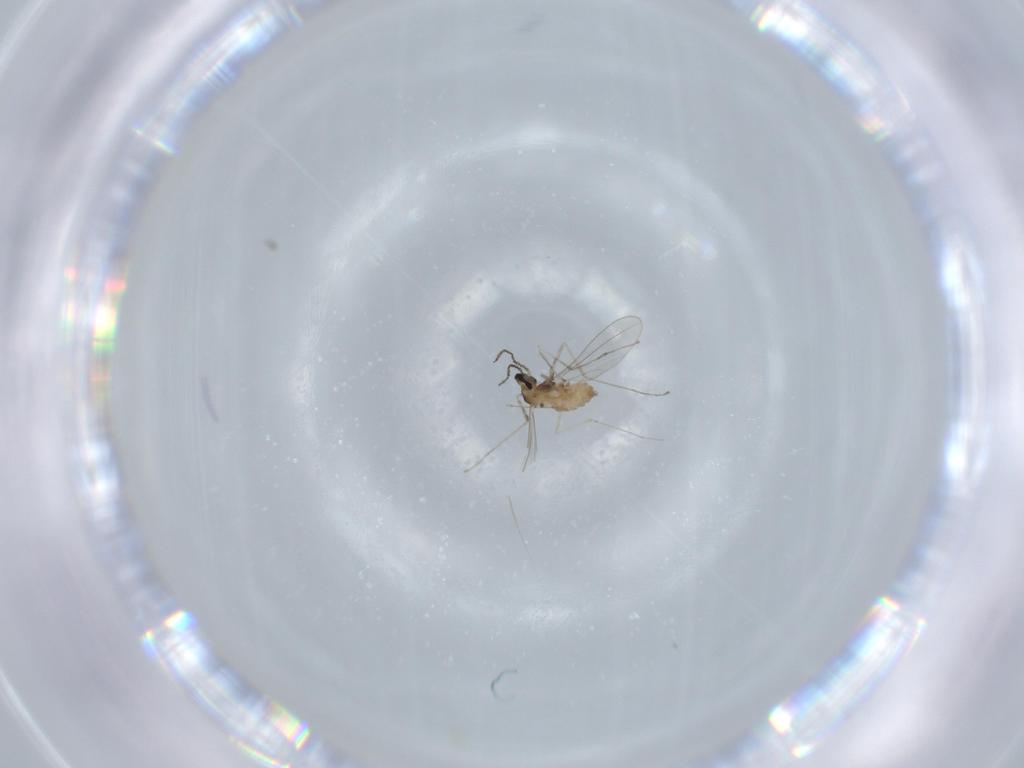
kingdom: Animalia
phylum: Arthropoda
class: Insecta
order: Diptera
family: Cecidomyiidae
